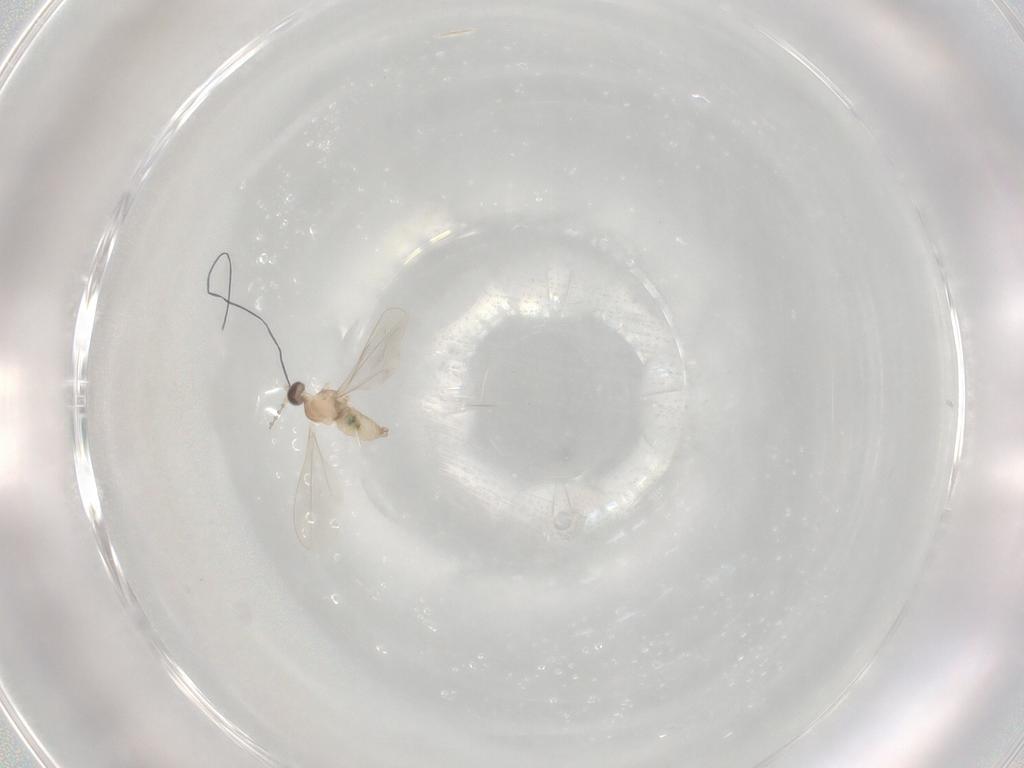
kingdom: Animalia
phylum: Arthropoda
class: Insecta
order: Diptera
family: Cecidomyiidae
